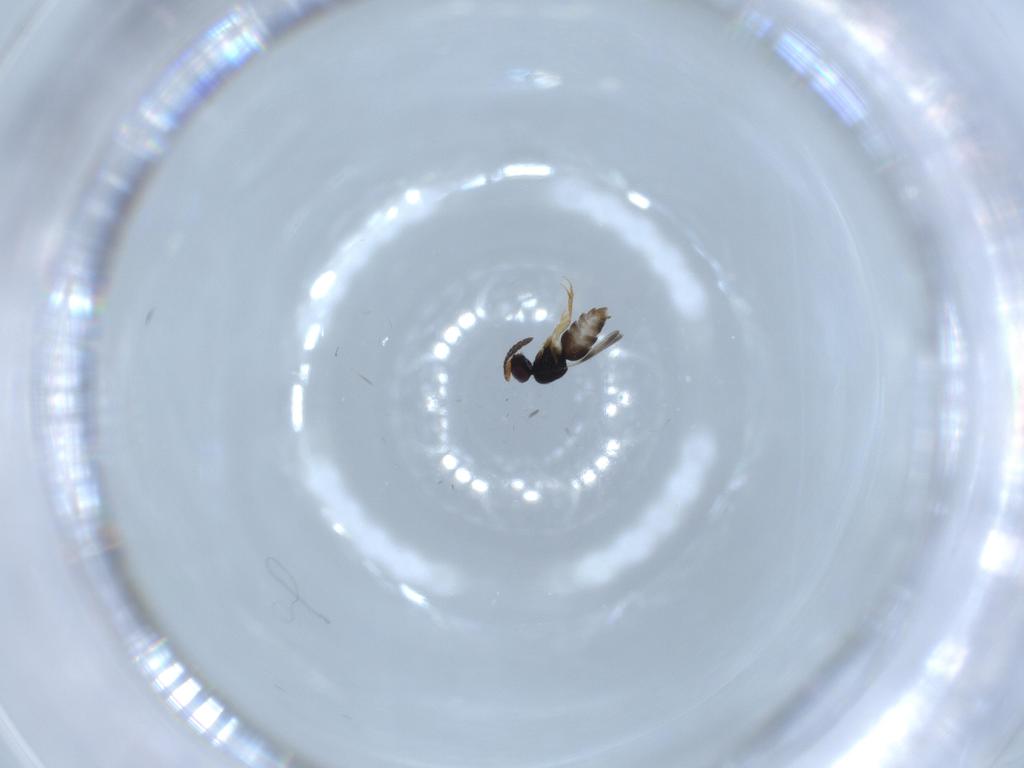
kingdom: Animalia
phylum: Arthropoda
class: Insecta
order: Hymenoptera
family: Ceraphronidae
